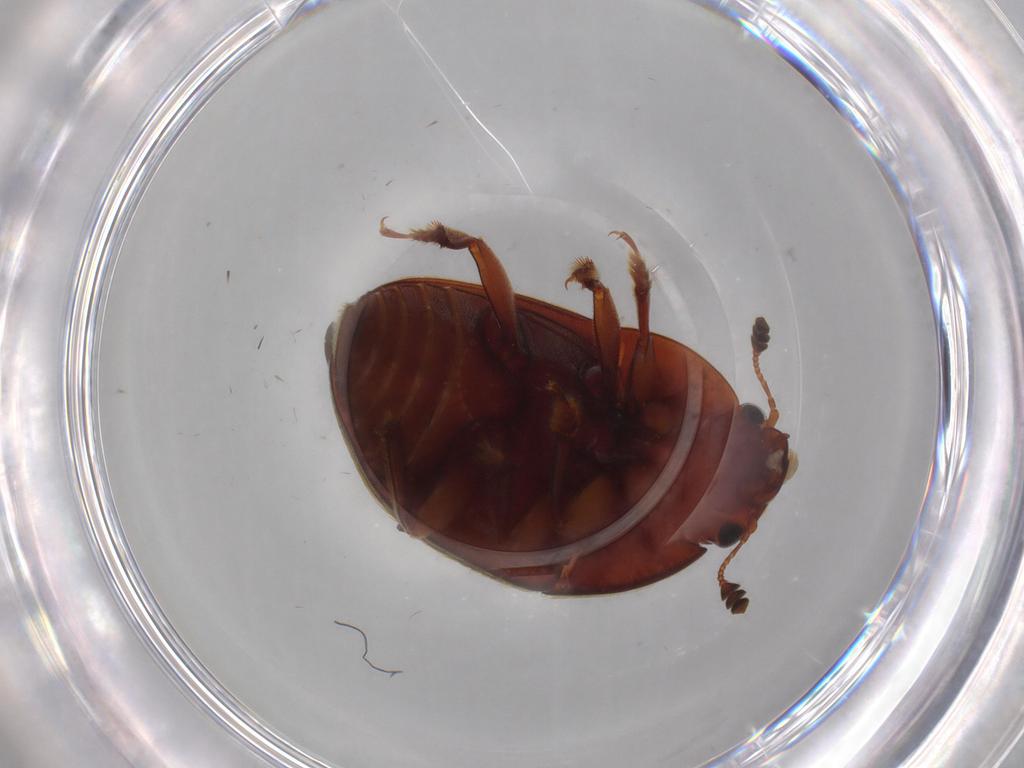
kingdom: Animalia
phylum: Arthropoda
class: Insecta
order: Coleoptera
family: Nitidulidae
